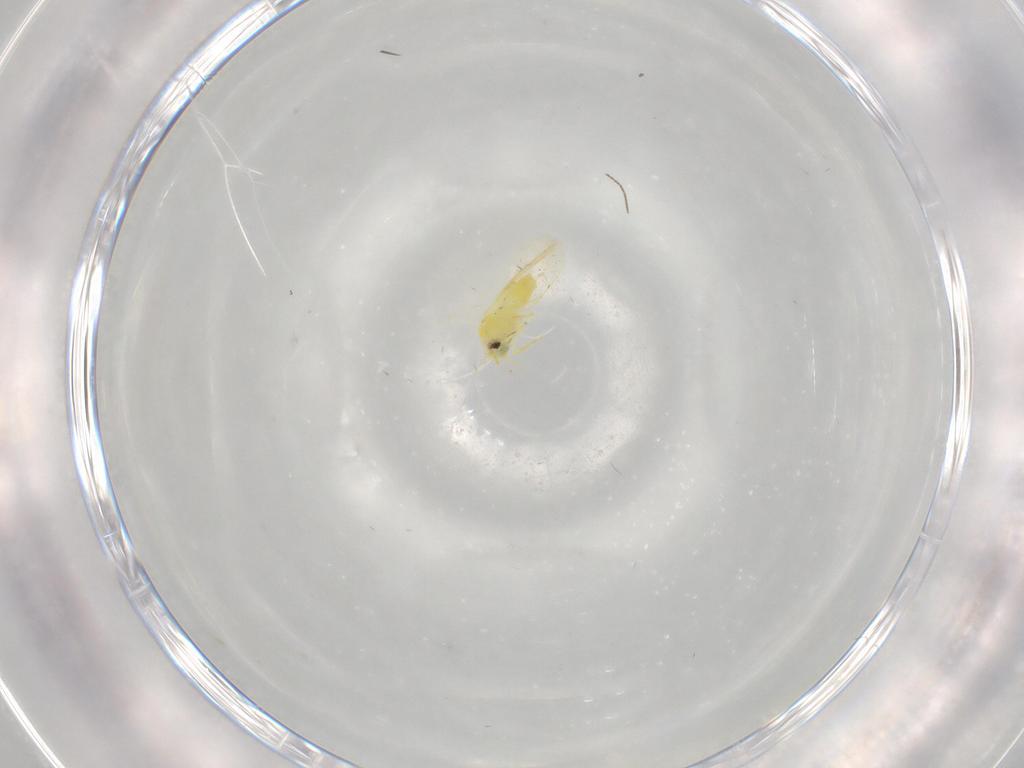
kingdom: Animalia
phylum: Arthropoda
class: Insecta
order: Hemiptera
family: Aleyrodidae
